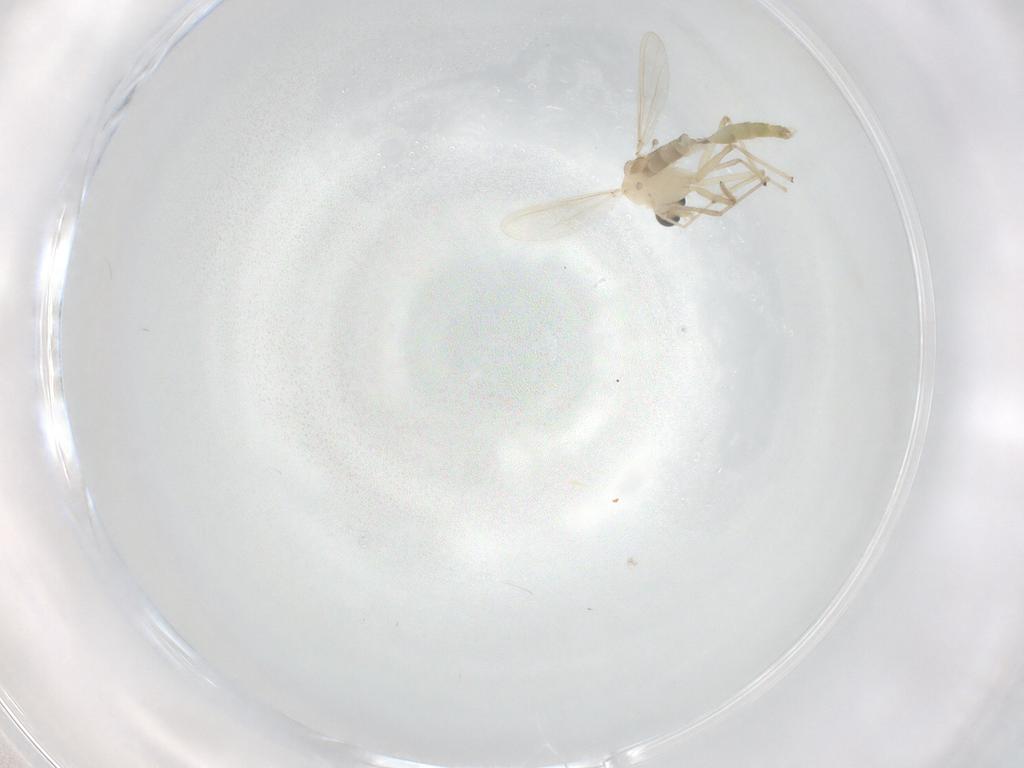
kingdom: Animalia
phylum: Arthropoda
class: Insecta
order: Diptera
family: Chironomidae
